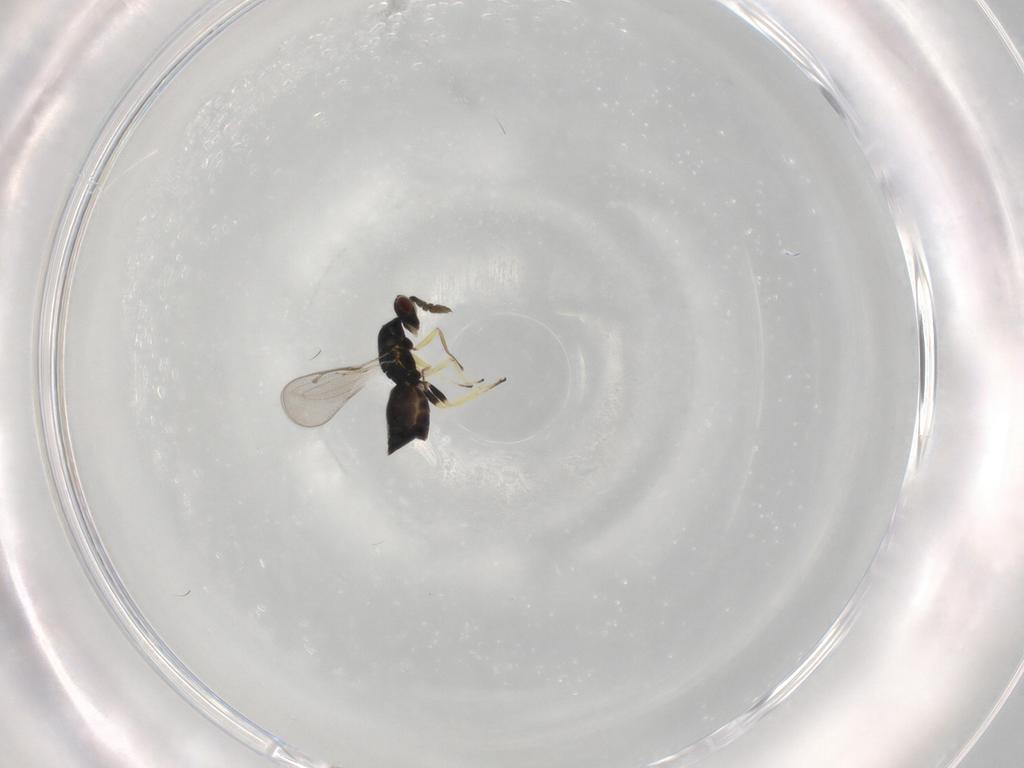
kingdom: Animalia
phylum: Arthropoda
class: Insecta
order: Hymenoptera
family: Eulophidae
